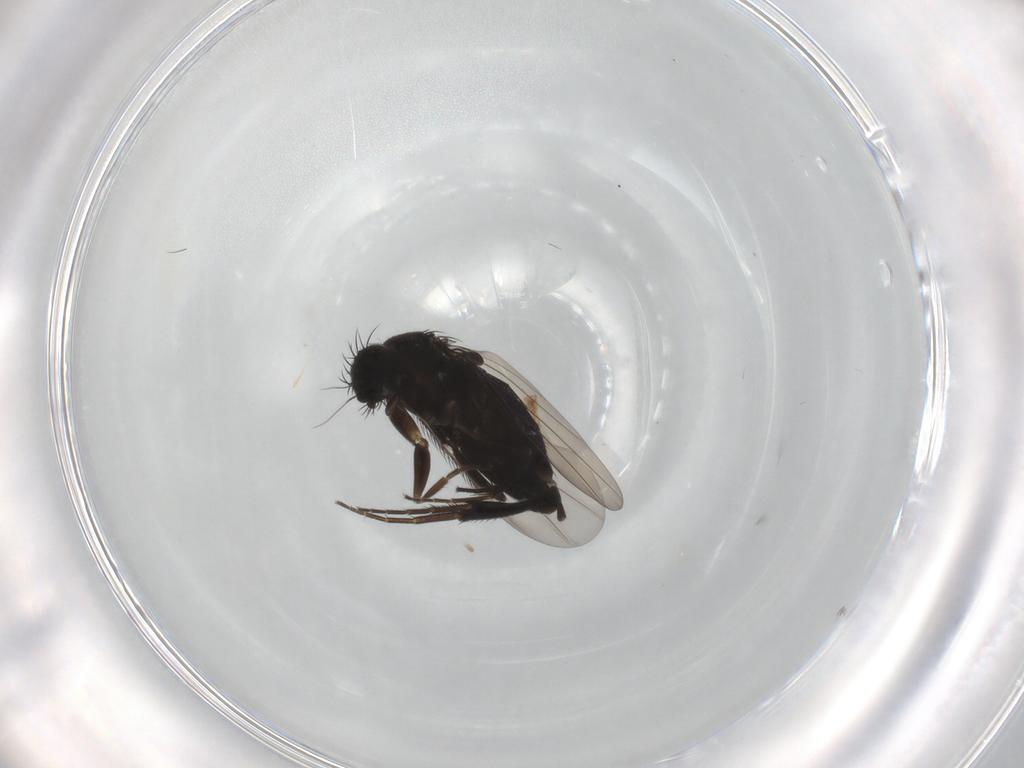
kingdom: Animalia
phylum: Arthropoda
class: Insecta
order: Diptera
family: Phoridae
